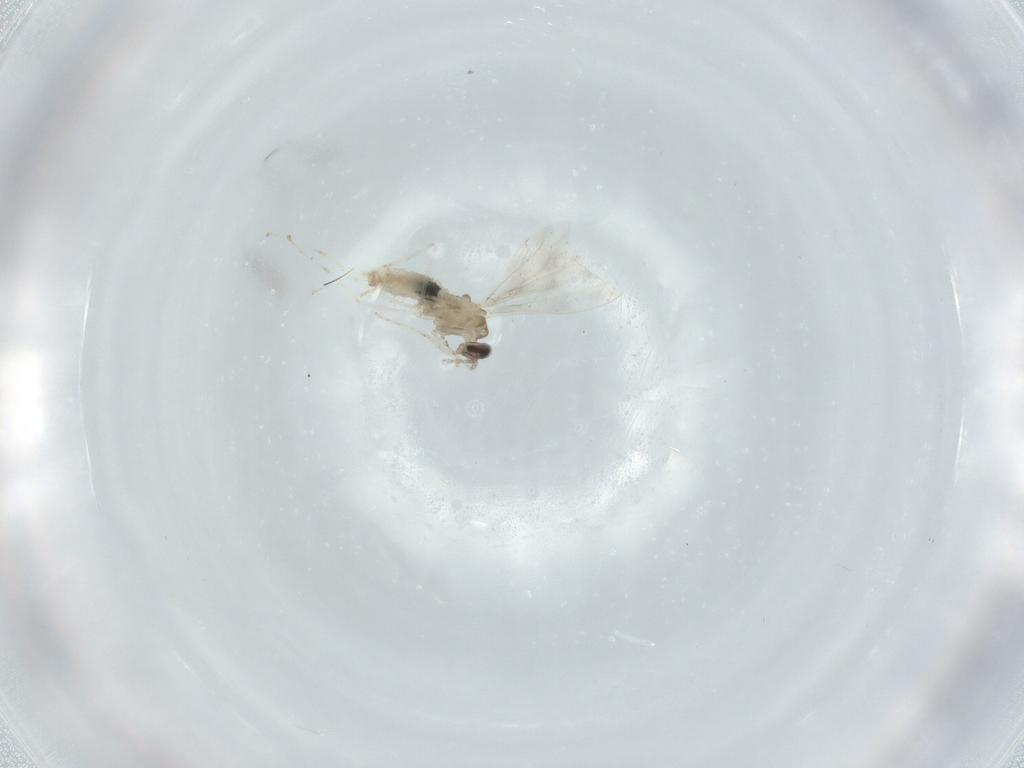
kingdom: Animalia
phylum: Arthropoda
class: Insecta
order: Diptera
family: Cecidomyiidae
